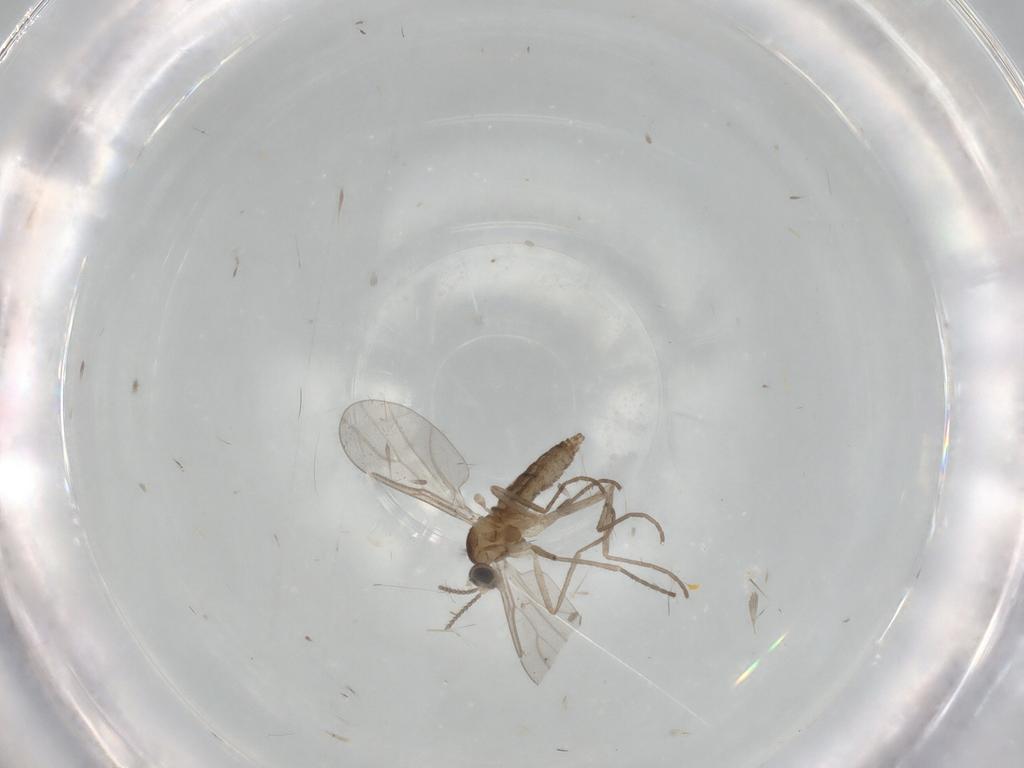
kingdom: Animalia
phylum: Arthropoda
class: Insecta
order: Diptera
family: Cecidomyiidae
